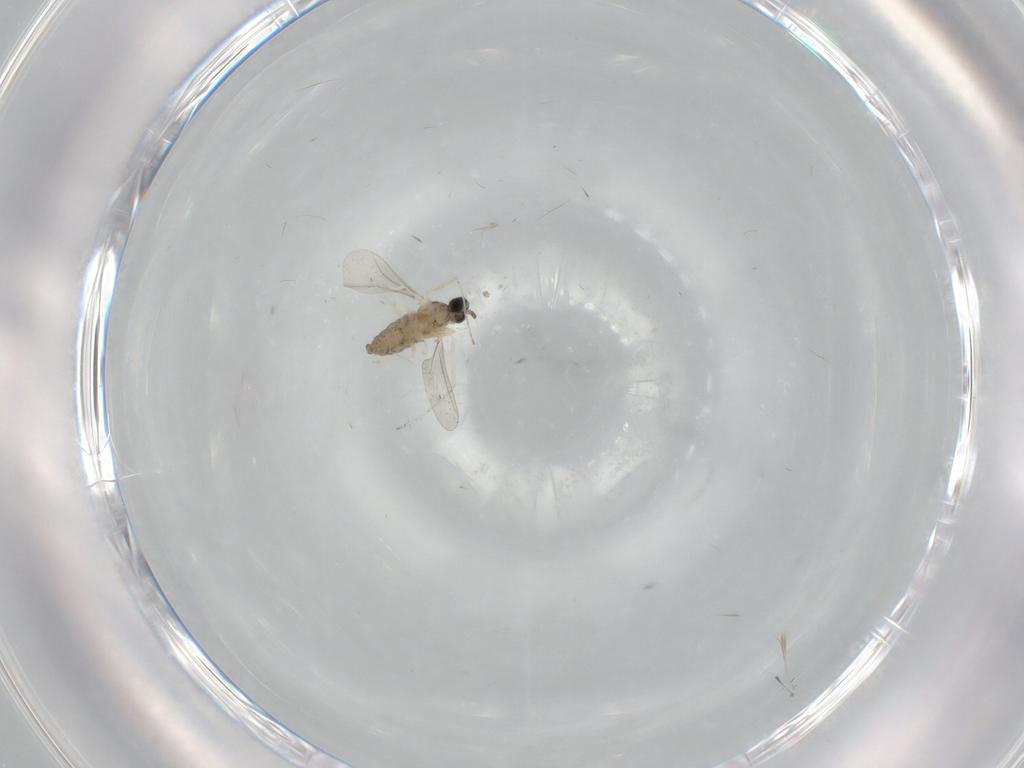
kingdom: Animalia
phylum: Arthropoda
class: Insecta
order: Diptera
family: Cecidomyiidae
